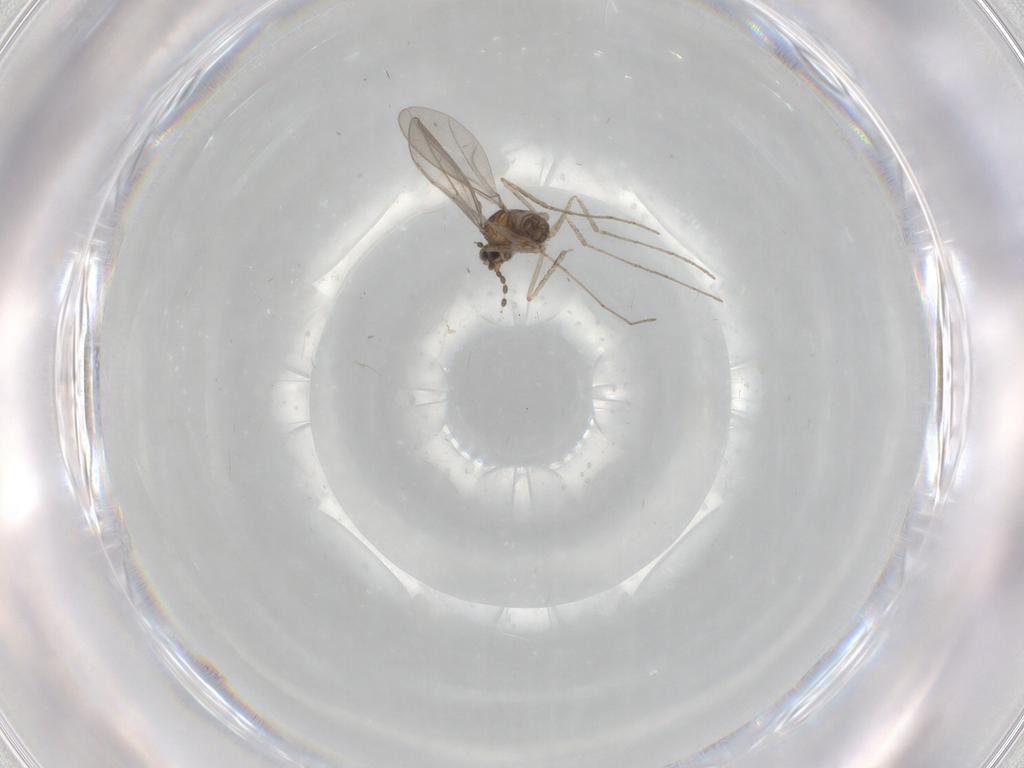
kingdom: Animalia
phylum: Arthropoda
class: Insecta
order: Diptera
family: Cecidomyiidae
